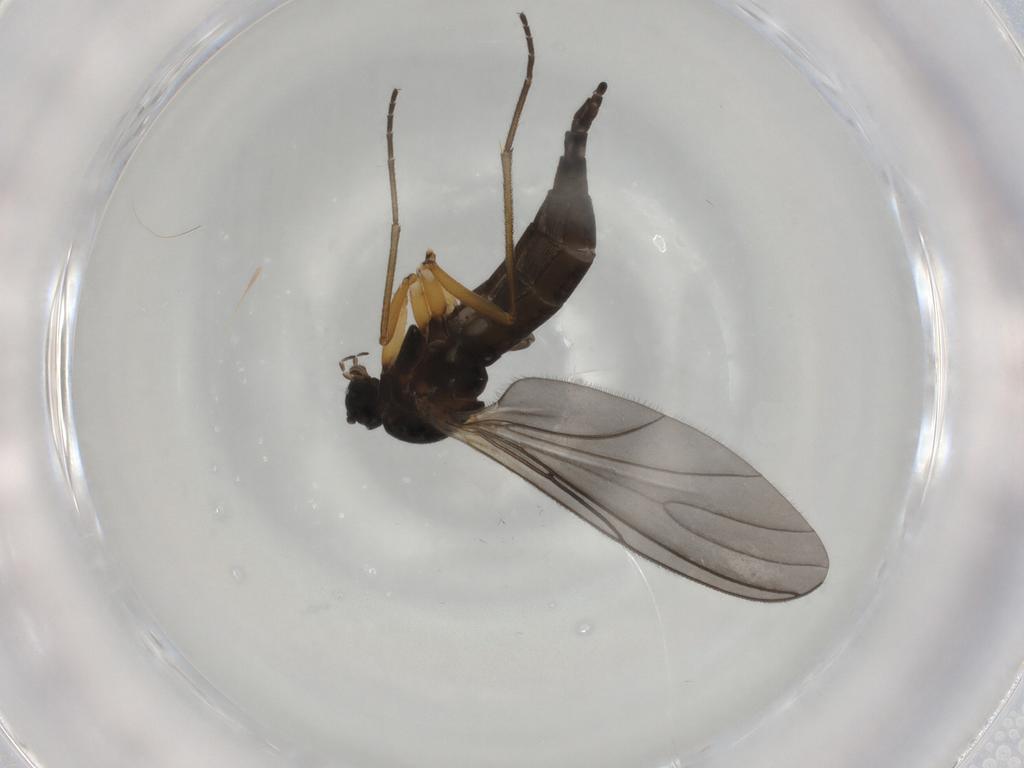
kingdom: Animalia
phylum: Arthropoda
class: Insecta
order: Diptera
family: Sciaridae
